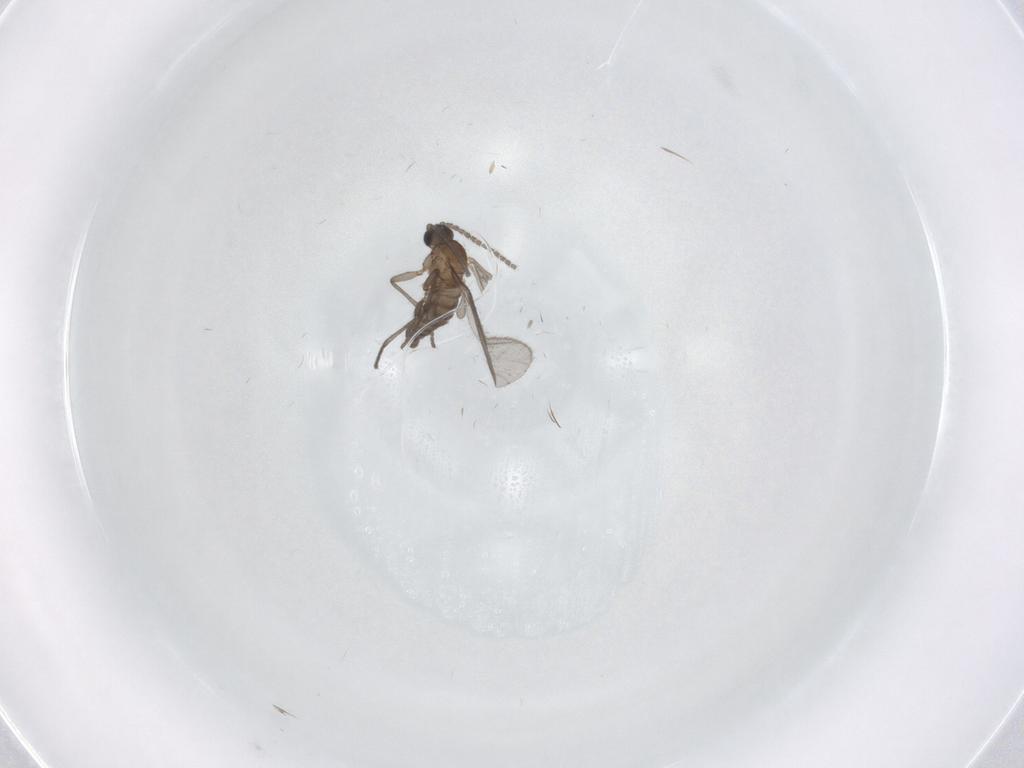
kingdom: Animalia
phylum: Arthropoda
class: Insecta
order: Diptera
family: Sciaridae
